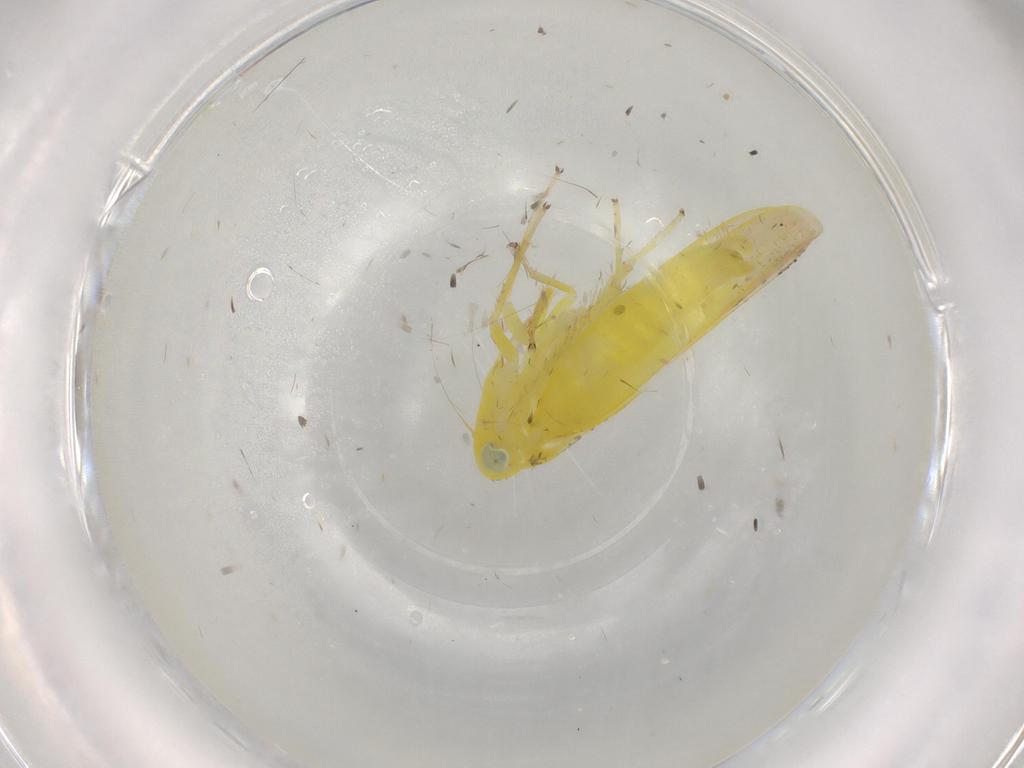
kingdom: Animalia
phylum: Arthropoda
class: Insecta
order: Hemiptera
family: Cicadellidae
